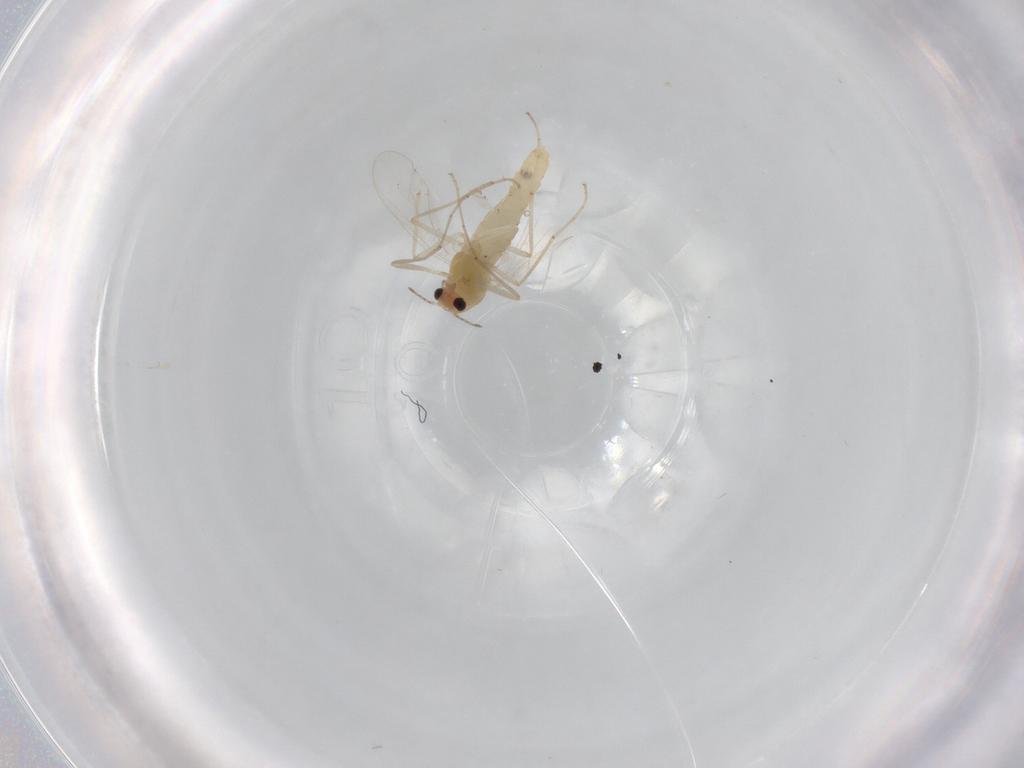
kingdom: Animalia
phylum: Arthropoda
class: Insecta
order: Diptera
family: Chironomidae
